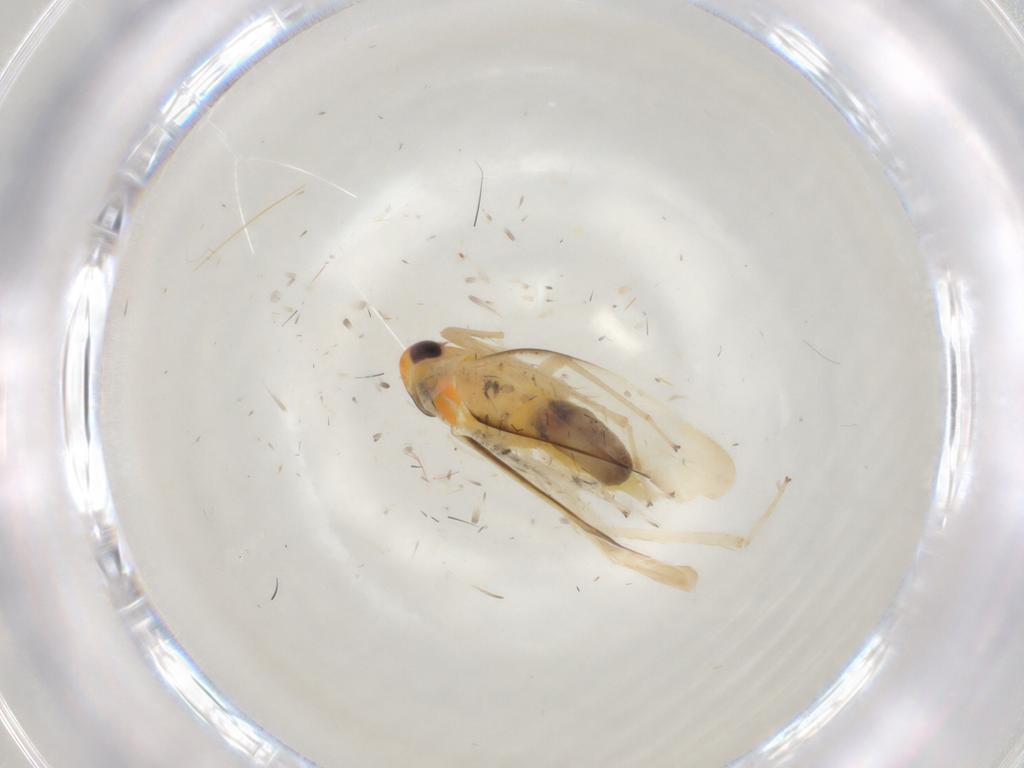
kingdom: Animalia
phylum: Arthropoda
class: Insecta
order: Hemiptera
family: Cicadellidae
